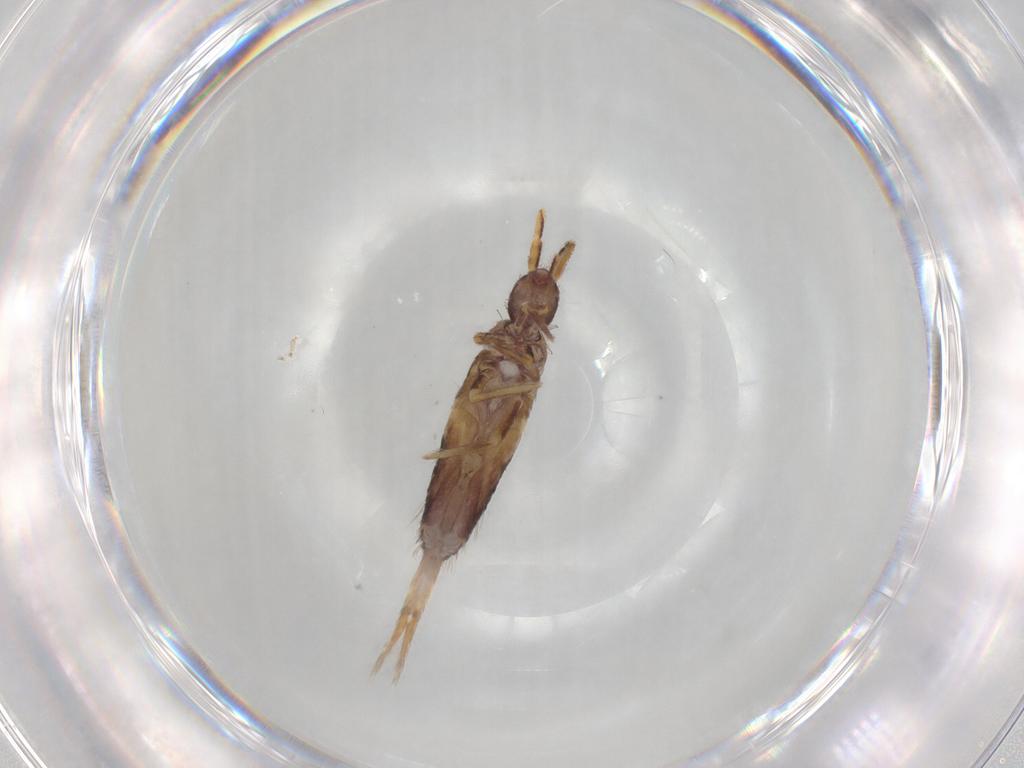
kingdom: Animalia
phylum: Arthropoda
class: Collembola
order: Entomobryomorpha
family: Entomobryidae
